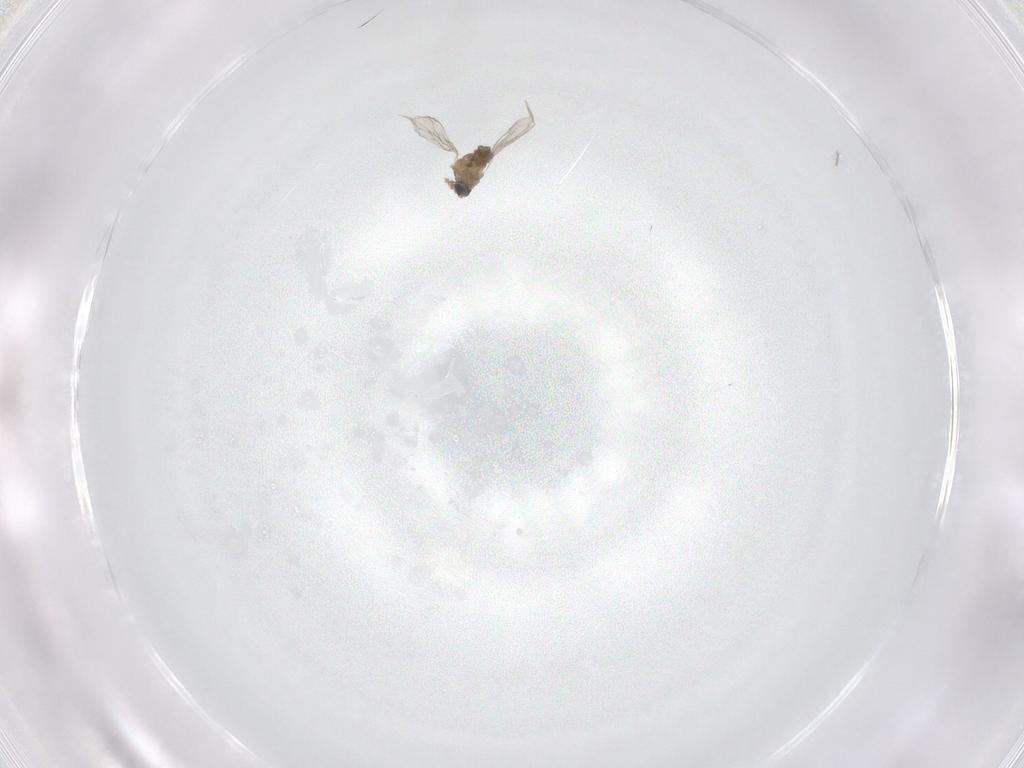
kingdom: Animalia
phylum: Arthropoda
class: Insecta
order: Diptera
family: Cecidomyiidae
